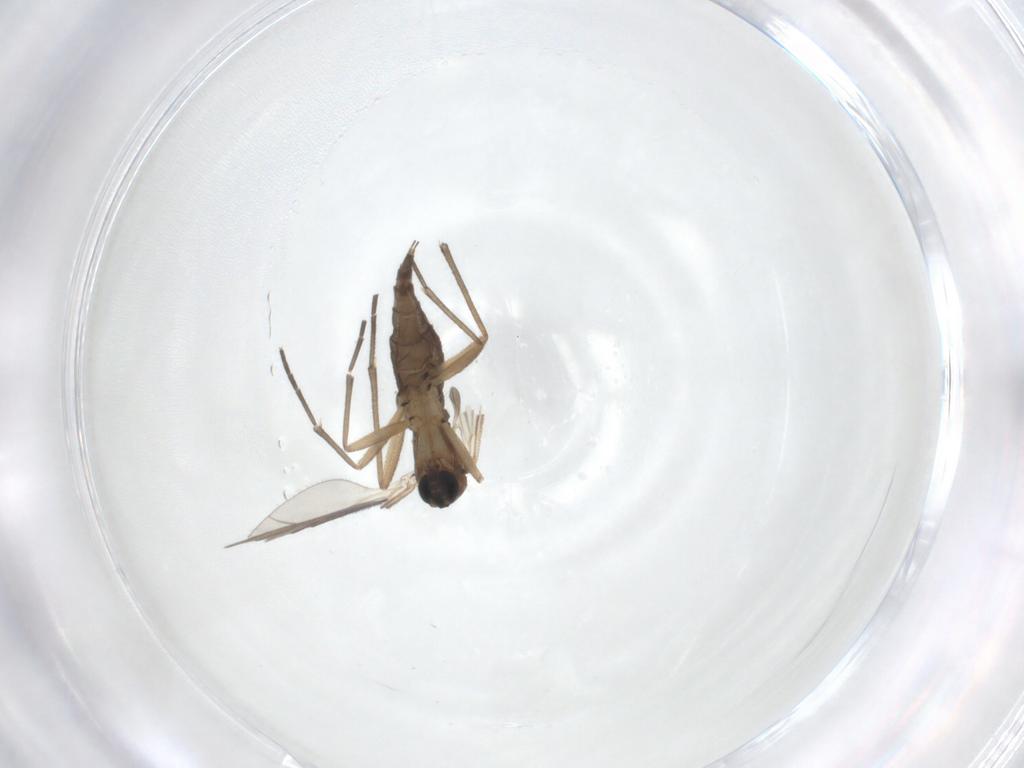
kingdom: Animalia
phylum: Arthropoda
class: Insecta
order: Diptera
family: Sciaridae
